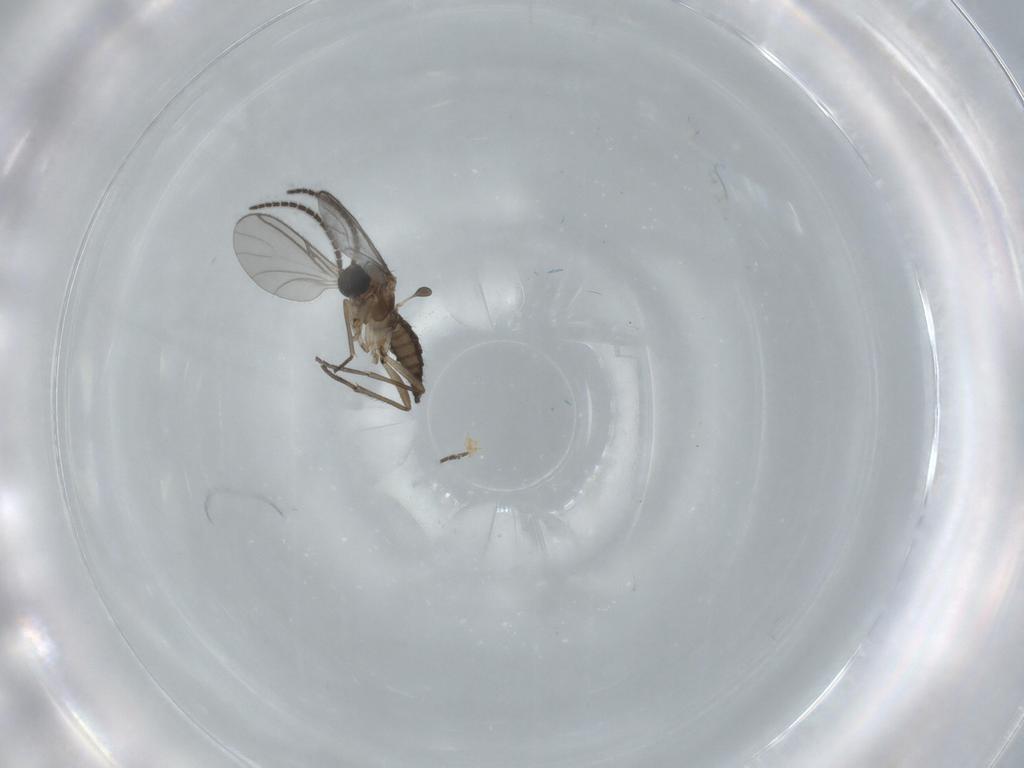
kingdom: Animalia
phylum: Arthropoda
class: Insecta
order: Diptera
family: Sciaridae
